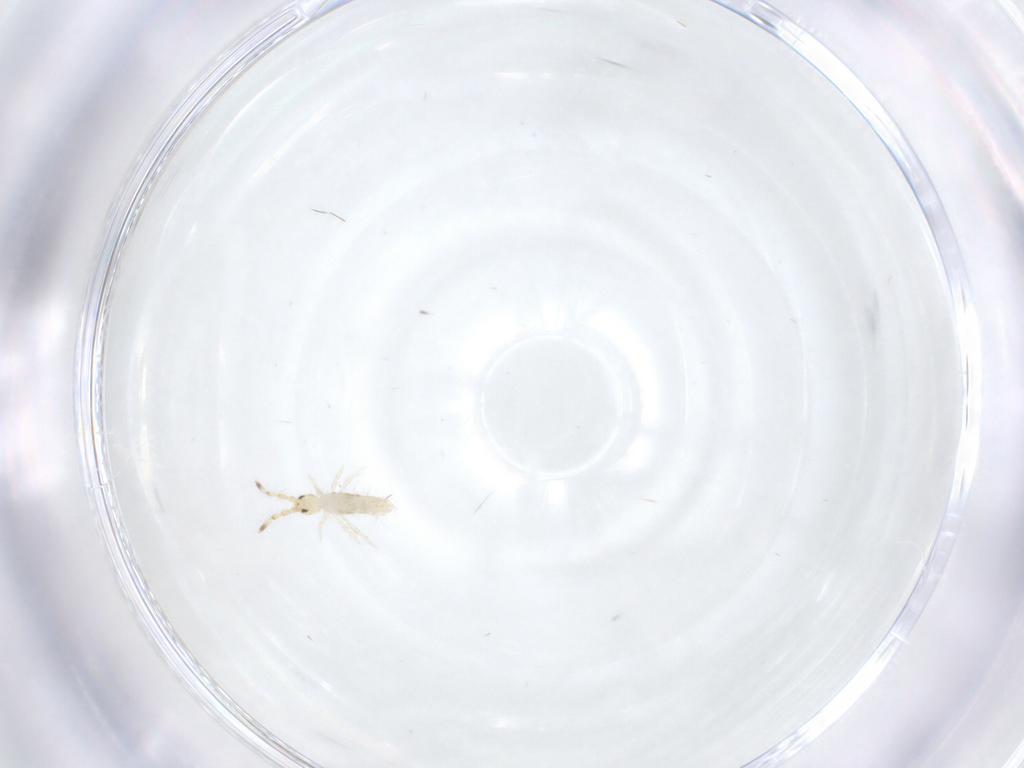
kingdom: Animalia
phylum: Arthropoda
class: Collembola
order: Entomobryomorpha
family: Entomobryidae
